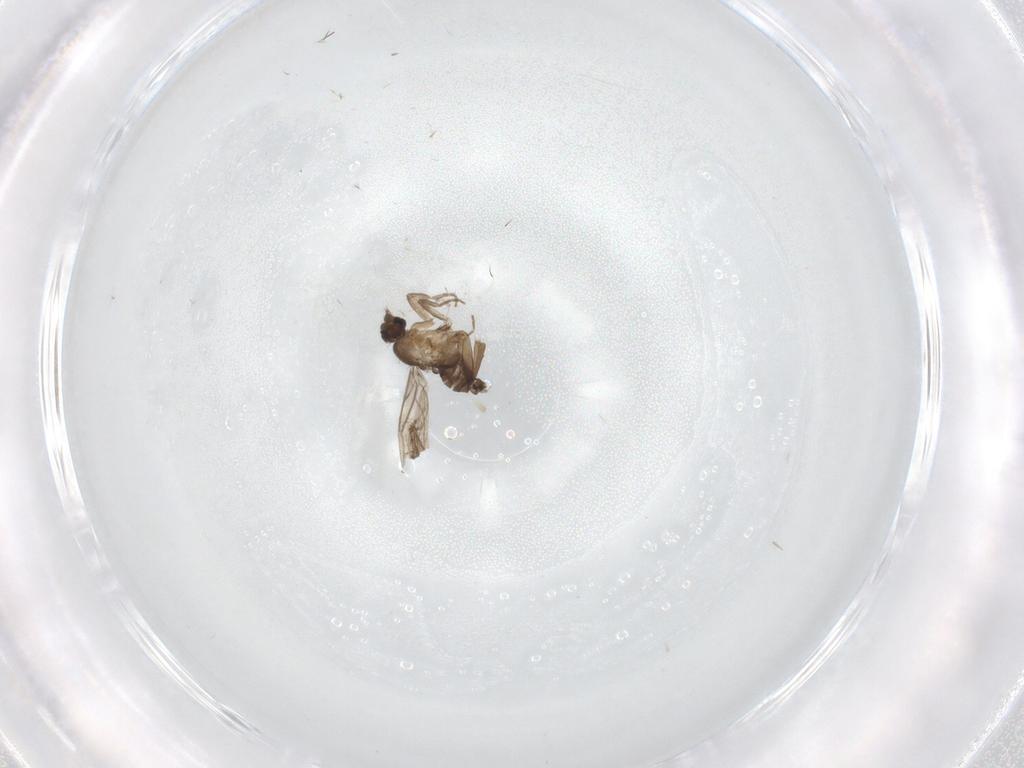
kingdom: Animalia
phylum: Arthropoda
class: Insecta
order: Diptera
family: Phoridae
